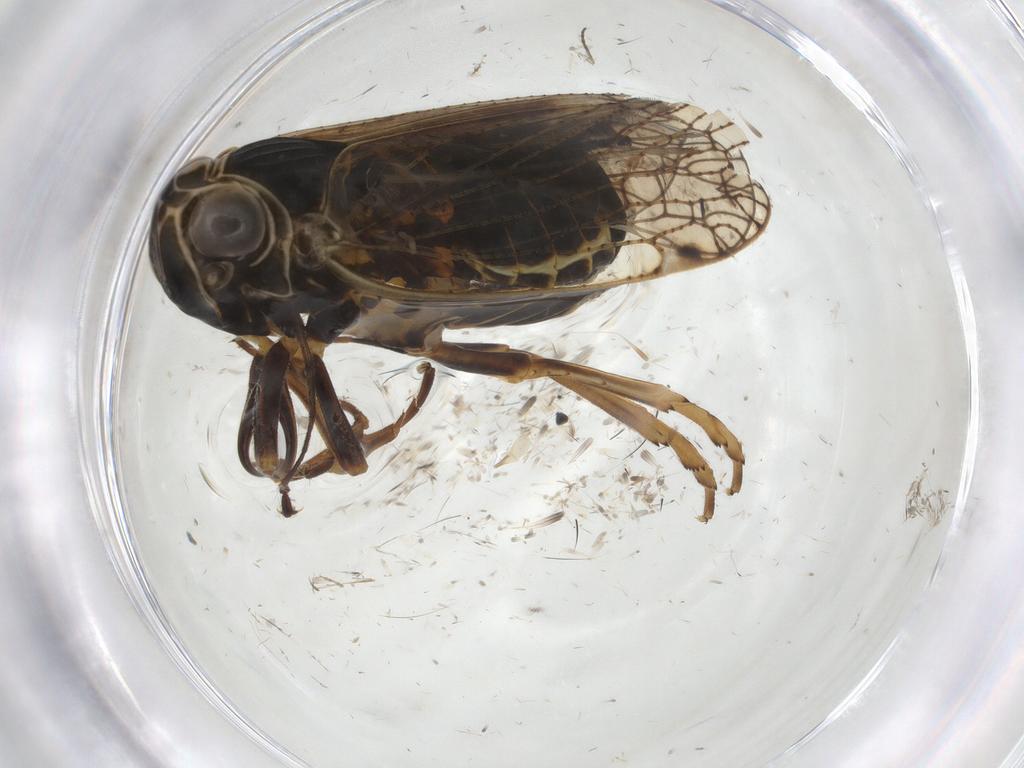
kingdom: Animalia
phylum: Arthropoda
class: Insecta
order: Hemiptera
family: Cixiidae
